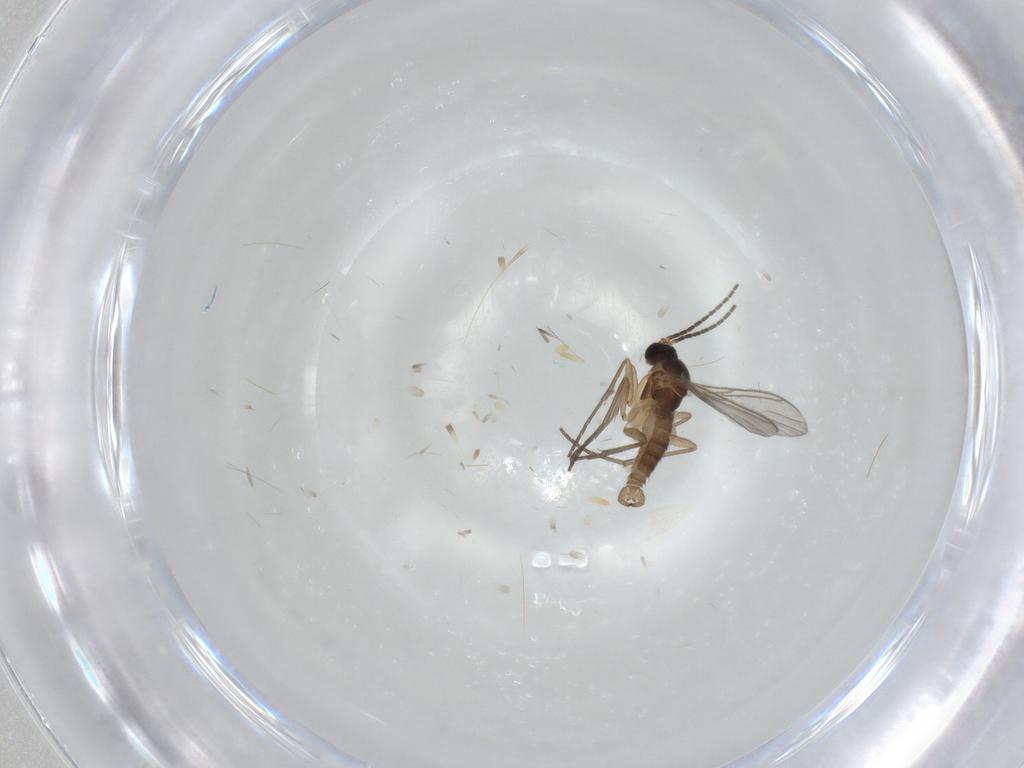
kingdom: Animalia
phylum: Arthropoda
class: Insecta
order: Diptera
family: Sciaridae
